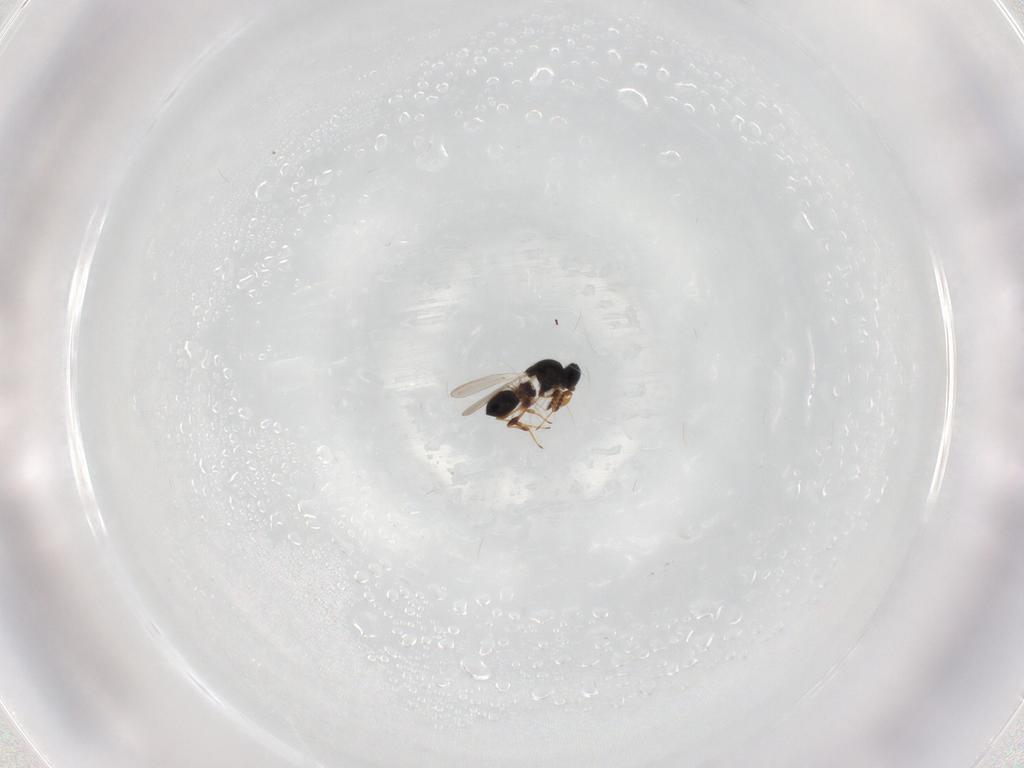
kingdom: Animalia
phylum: Arthropoda
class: Insecta
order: Hymenoptera
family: Platygastridae
